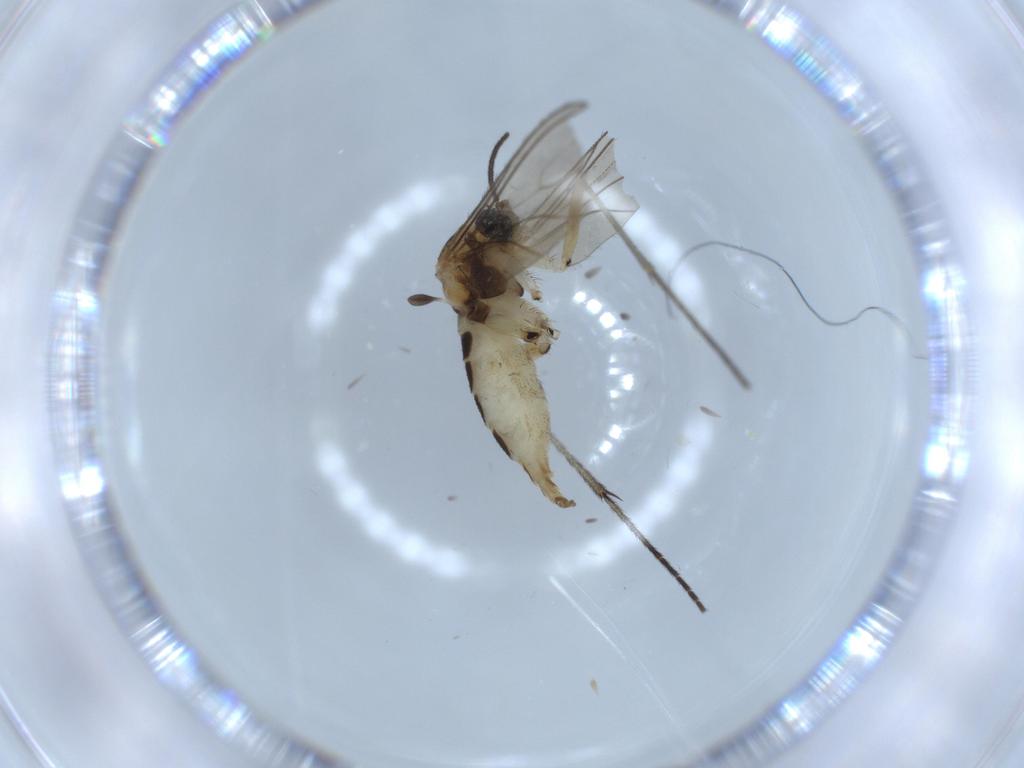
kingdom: Animalia
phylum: Arthropoda
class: Insecta
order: Diptera
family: Sciaridae
